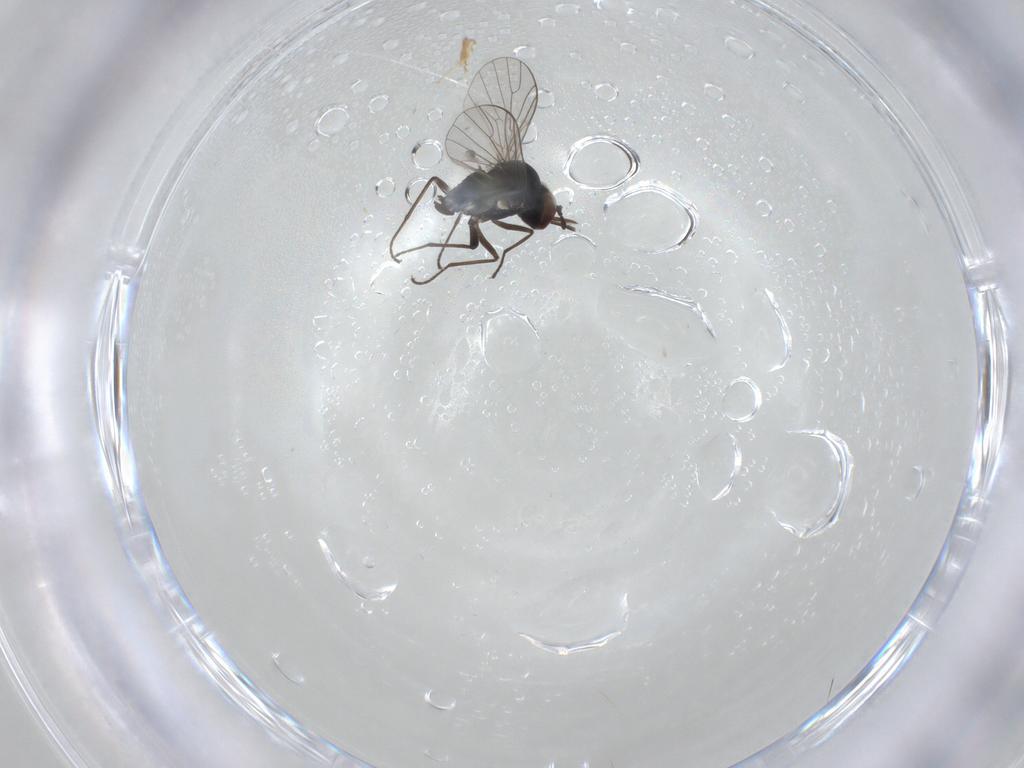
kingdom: Animalia
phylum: Arthropoda
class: Insecta
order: Diptera
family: Bombyliidae
